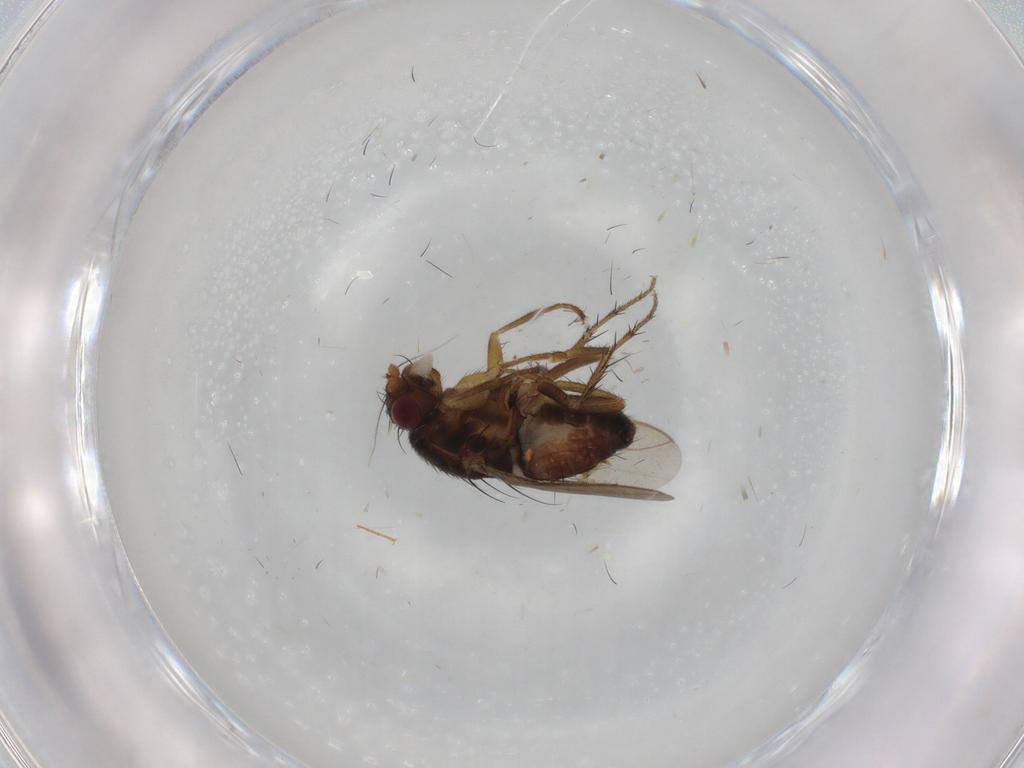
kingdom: Animalia
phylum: Arthropoda
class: Insecta
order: Diptera
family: Sphaeroceridae
